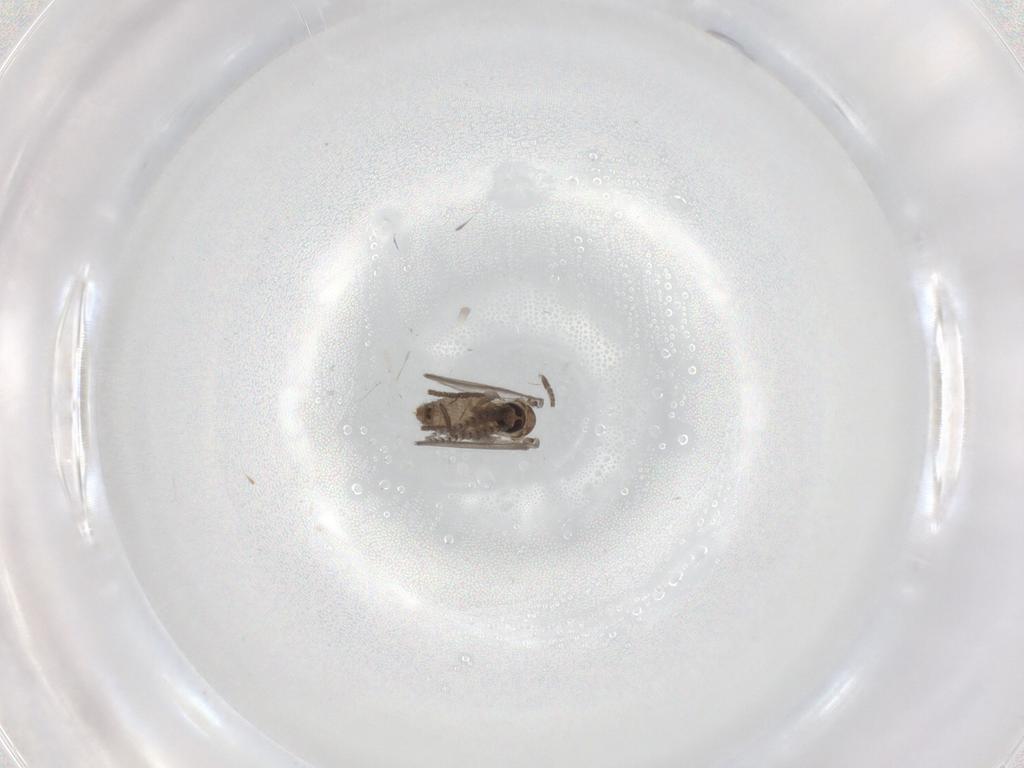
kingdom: Animalia
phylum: Arthropoda
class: Insecta
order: Diptera
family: Psychodidae
